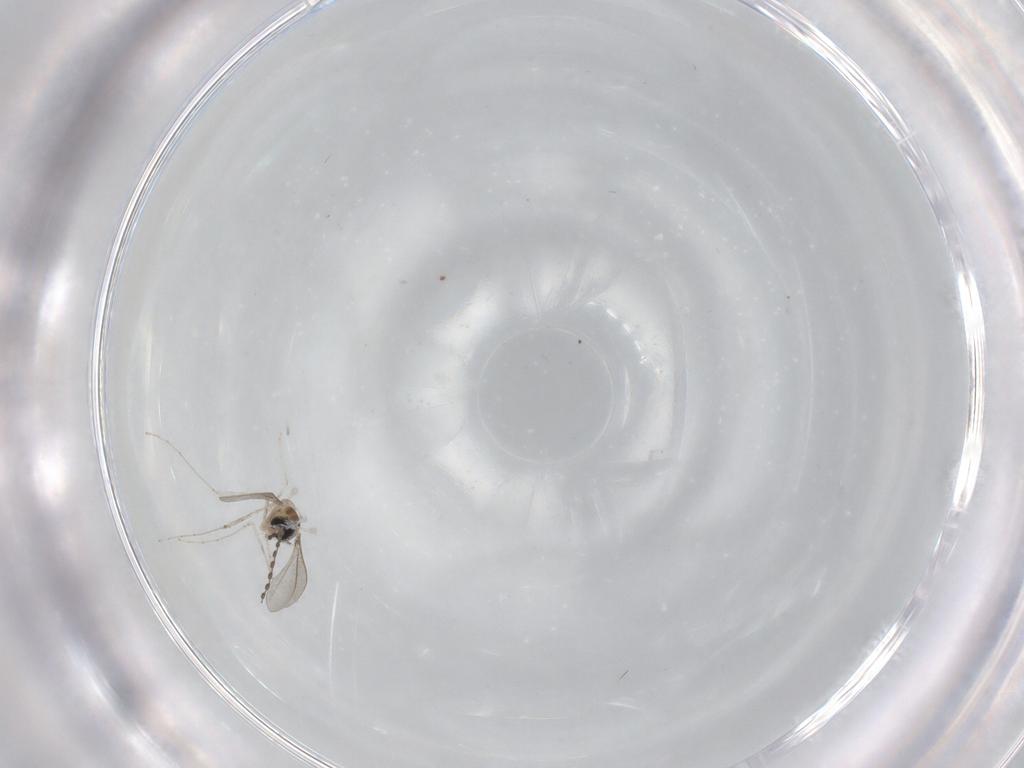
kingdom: Animalia
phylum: Arthropoda
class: Insecta
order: Diptera
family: Cecidomyiidae
